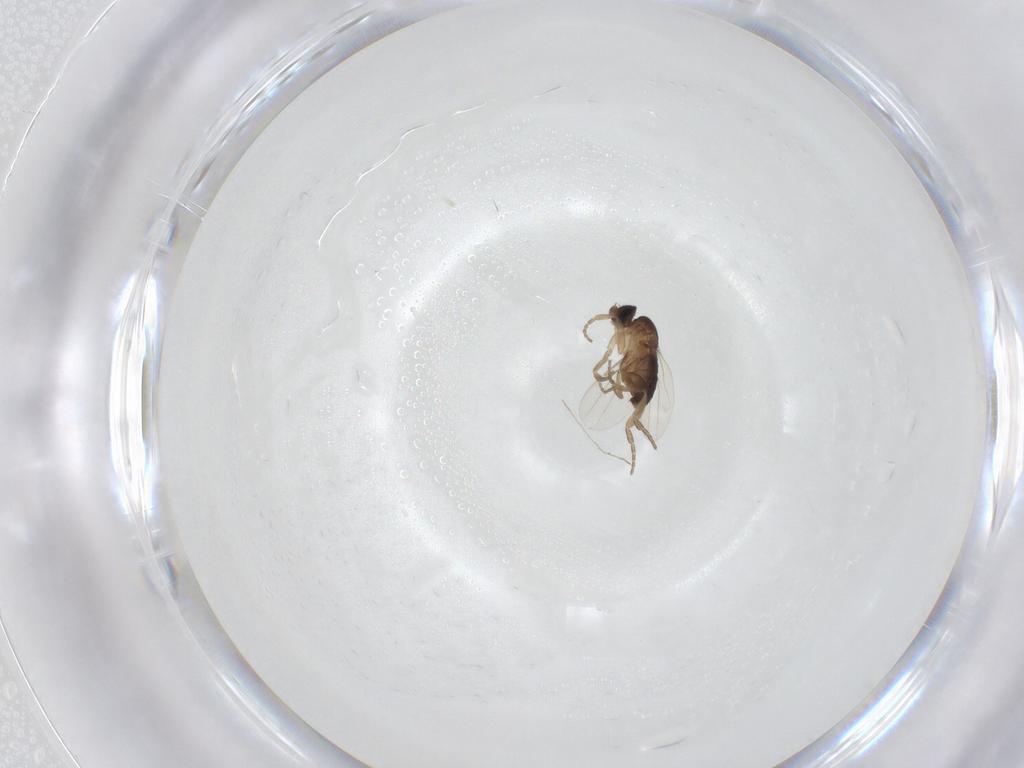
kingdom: Animalia
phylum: Arthropoda
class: Insecta
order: Diptera
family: Phoridae
